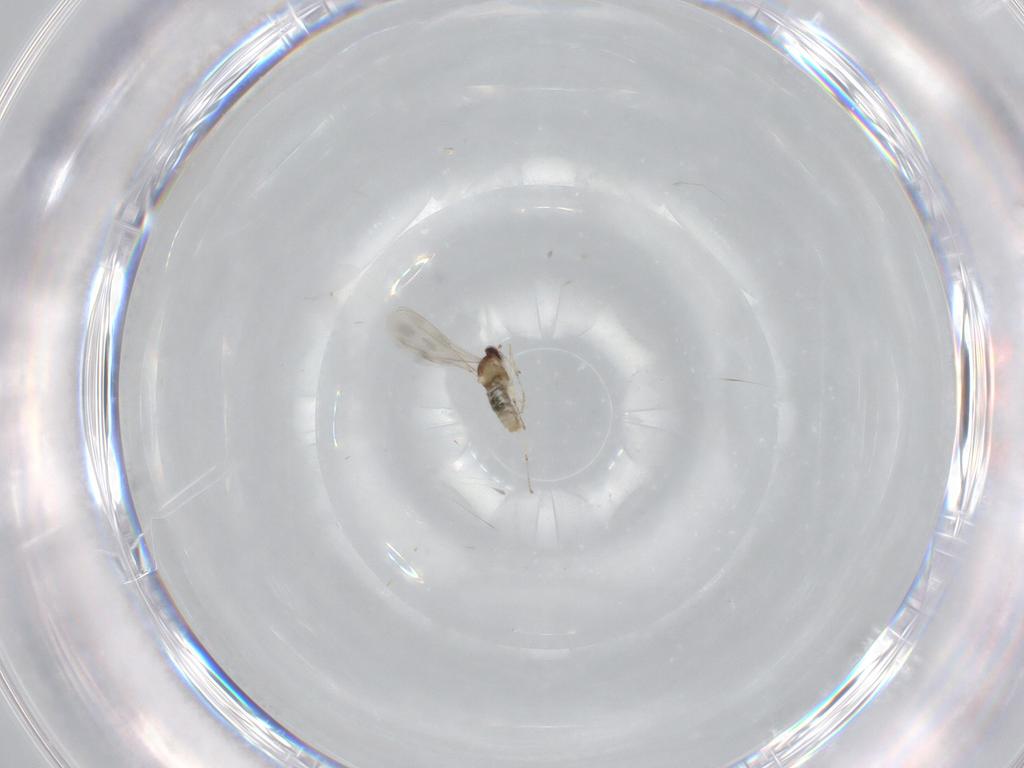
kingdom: Animalia
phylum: Arthropoda
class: Insecta
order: Diptera
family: Cecidomyiidae
